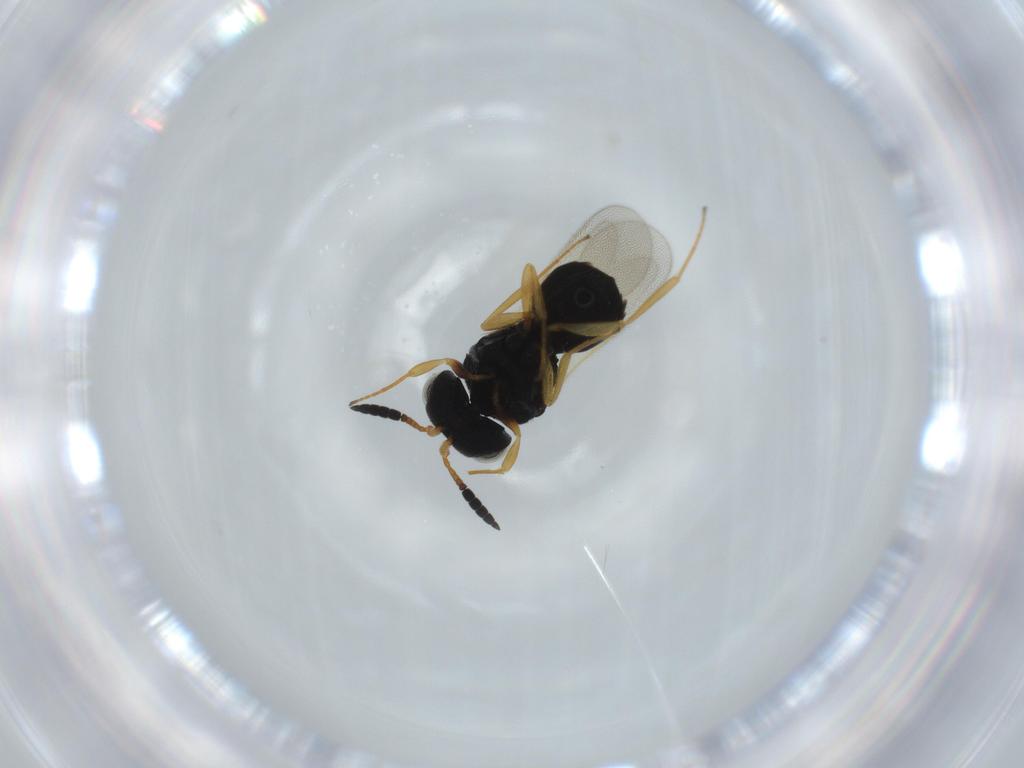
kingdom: Animalia
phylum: Arthropoda
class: Insecta
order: Hymenoptera
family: Scelionidae
